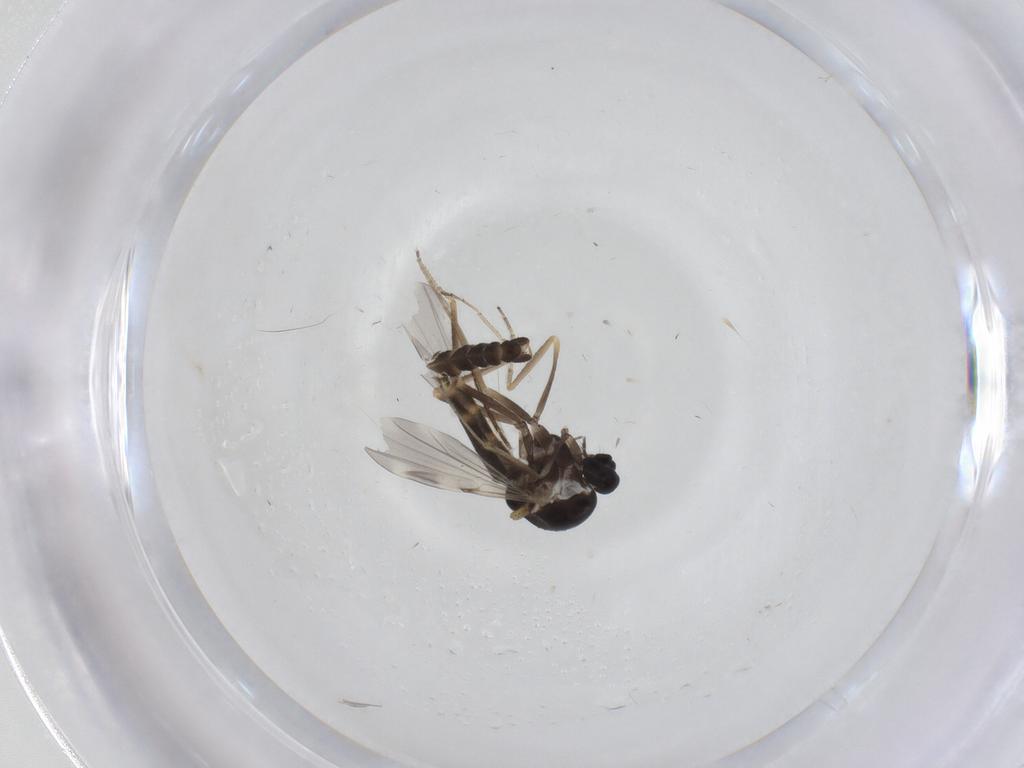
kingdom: Animalia
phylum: Arthropoda
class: Insecta
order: Diptera
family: Ceratopogonidae
